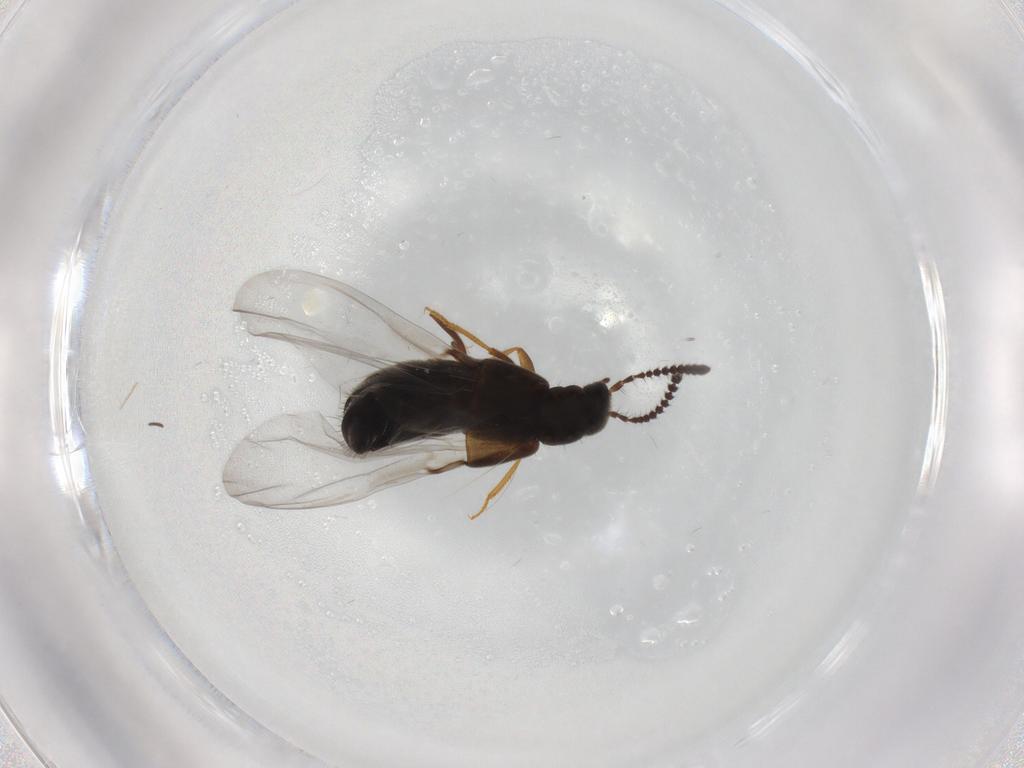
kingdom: Animalia
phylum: Arthropoda
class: Insecta
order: Coleoptera
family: Staphylinidae
